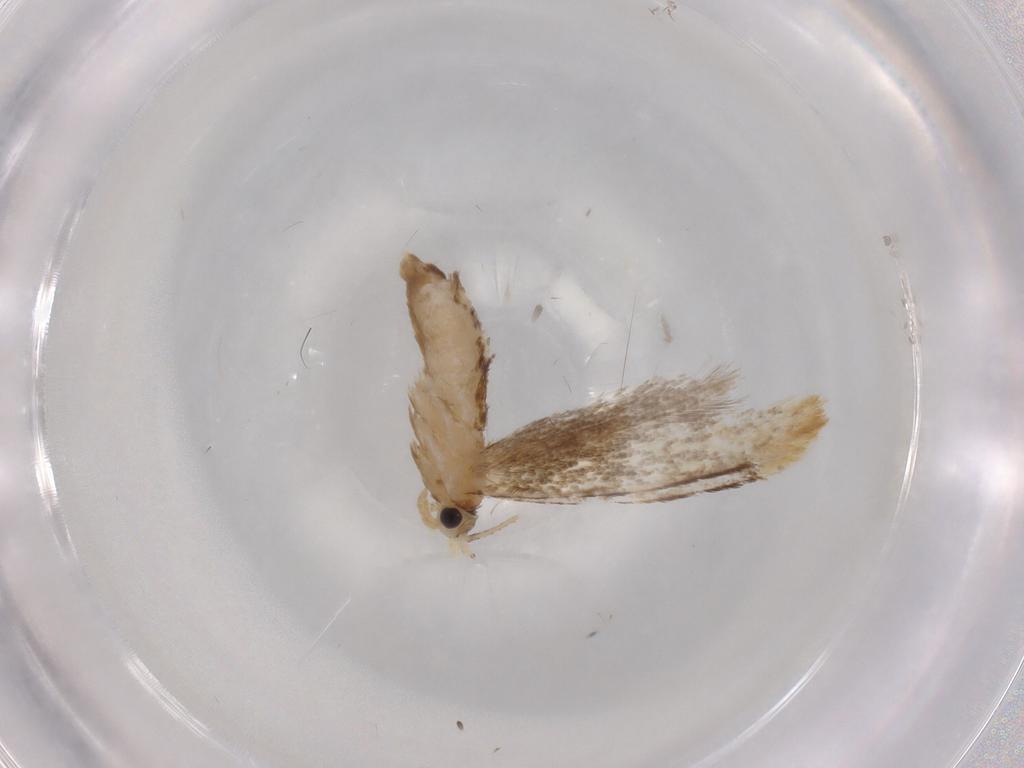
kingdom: Animalia
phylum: Arthropoda
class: Insecta
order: Lepidoptera
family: Dryadaulidae
